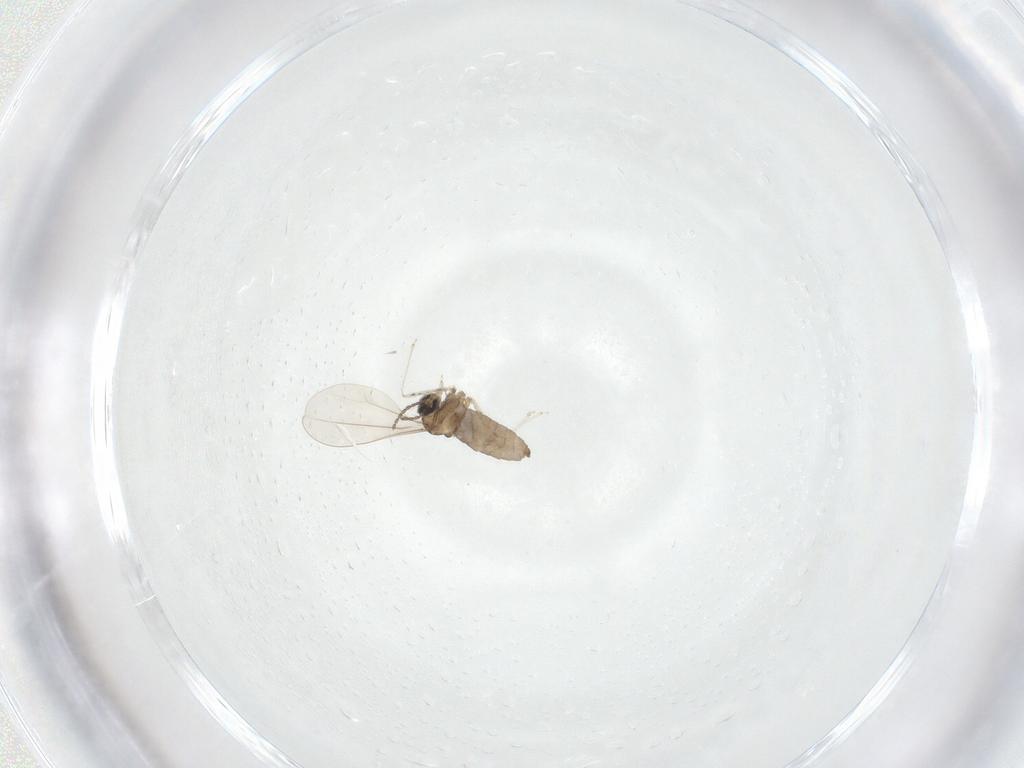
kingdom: Animalia
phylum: Arthropoda
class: Insecta
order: Diptera
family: Cecidomyiidae
